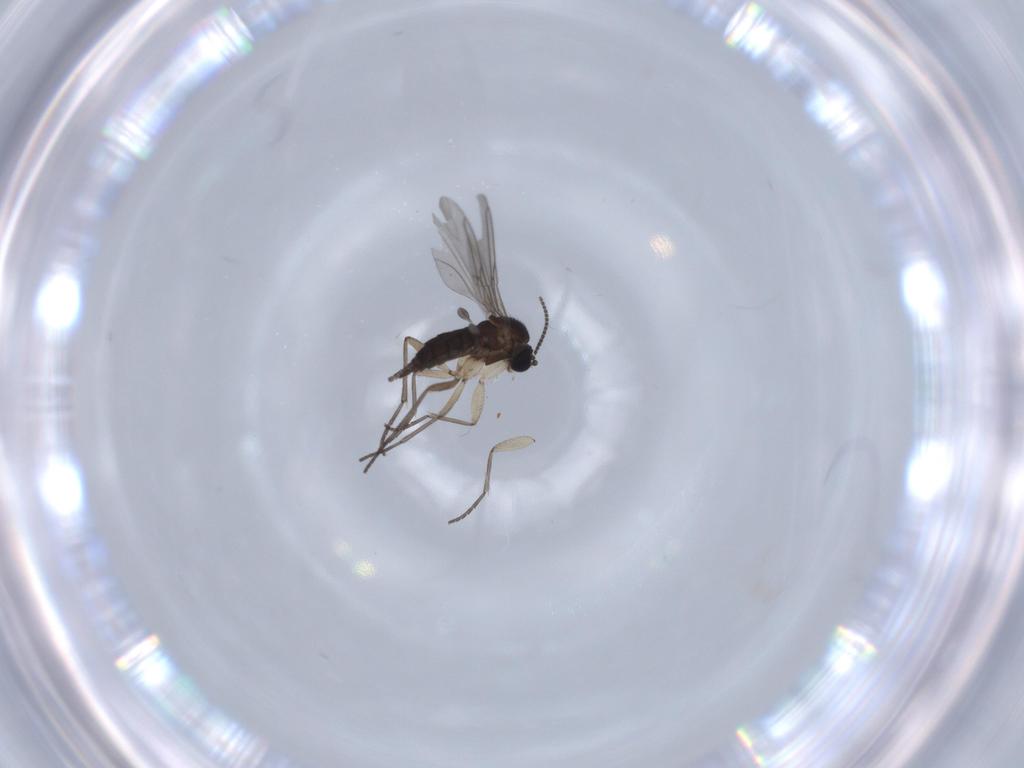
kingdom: Animalia
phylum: Arthropoda
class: Insecta
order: Diptera
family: Sciaridae
